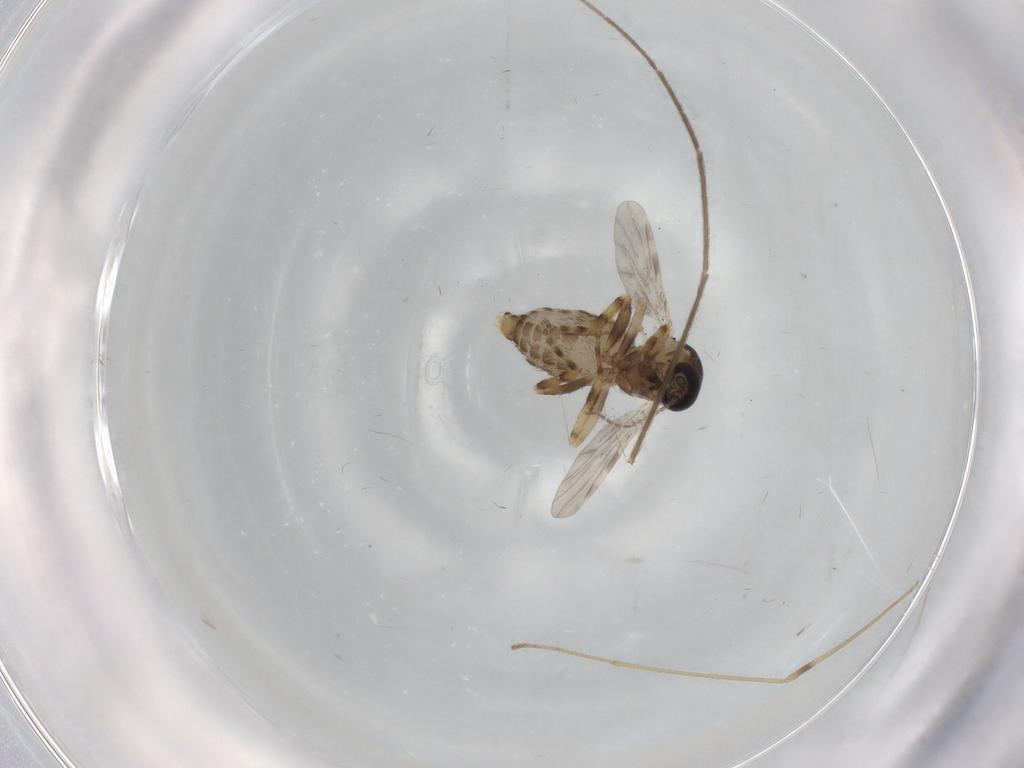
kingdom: Animalia
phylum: Arthropoda
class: Insecta
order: Diptera
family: Ceratopogonidae
